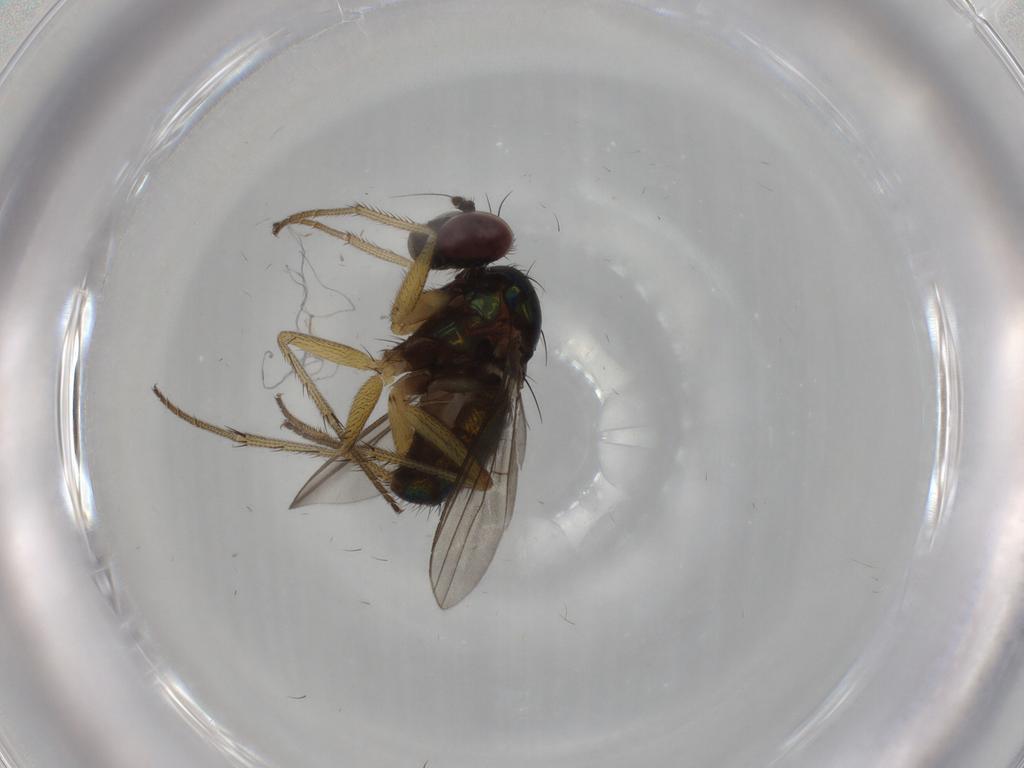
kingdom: Animalia
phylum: Arthropoda
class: Insecta
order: Diptera
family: Dolichopodidae
